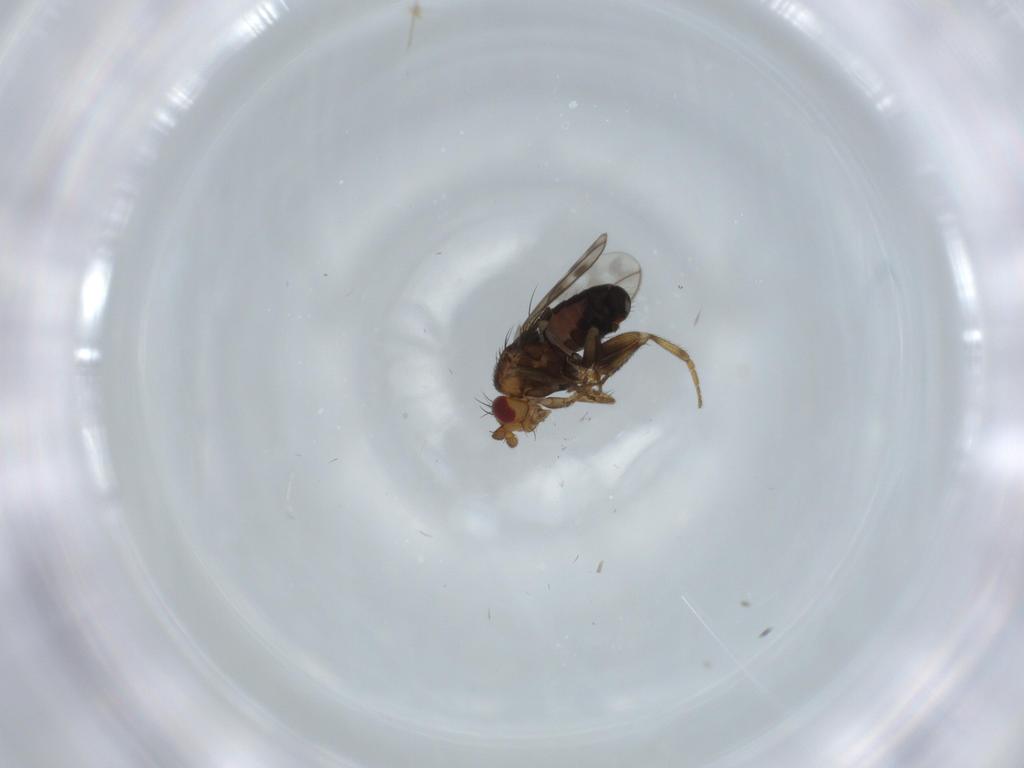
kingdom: Animalia
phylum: Arthropoda
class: Insecta
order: Diptera
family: Sphaeroceridae
